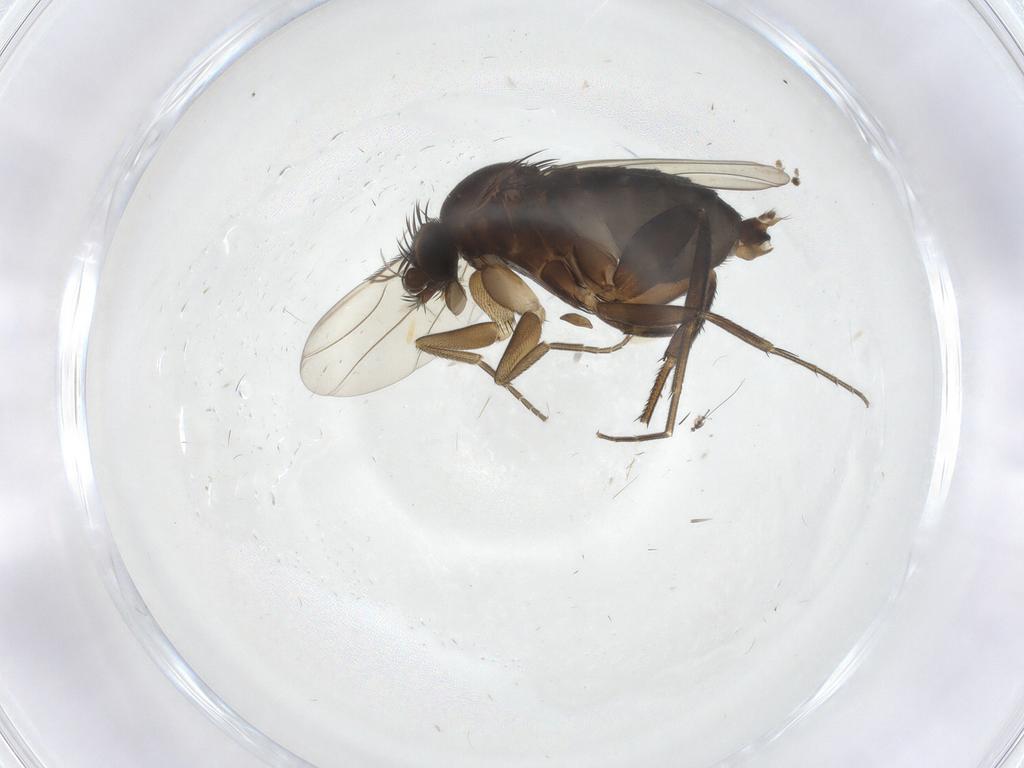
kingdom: Animalia
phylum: Arthropoda
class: Insecta
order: Diptera
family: Phoridae
